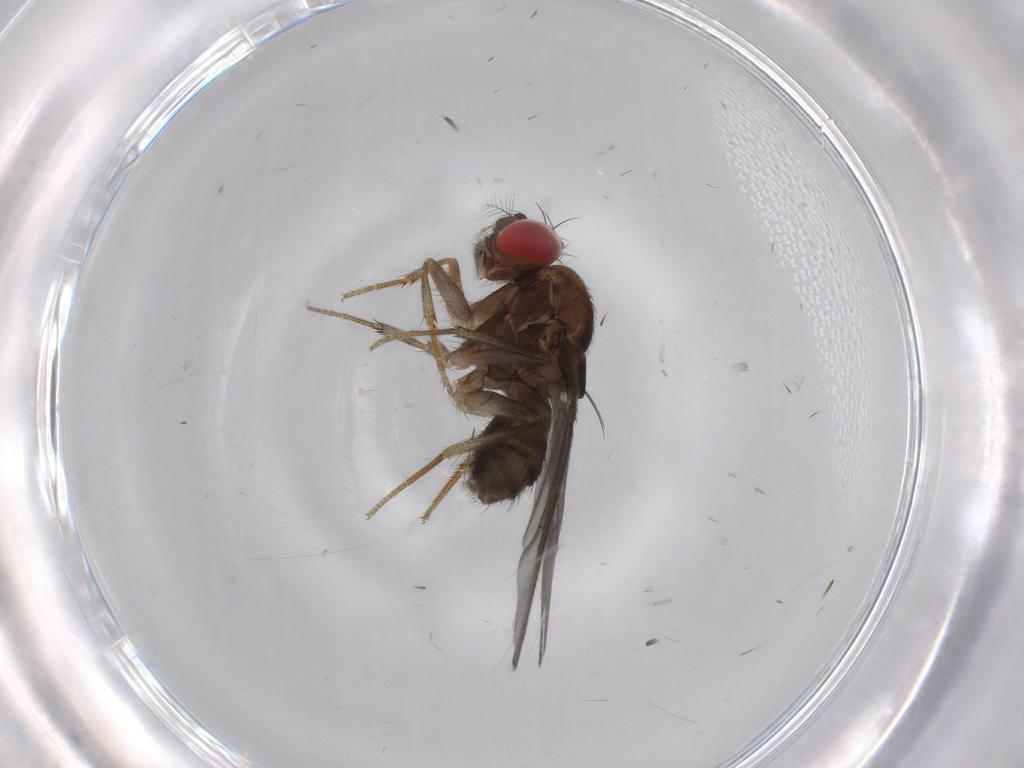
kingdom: Animalia
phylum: Arthropoda
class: Insecta
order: Diptera
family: Drosophilidae
